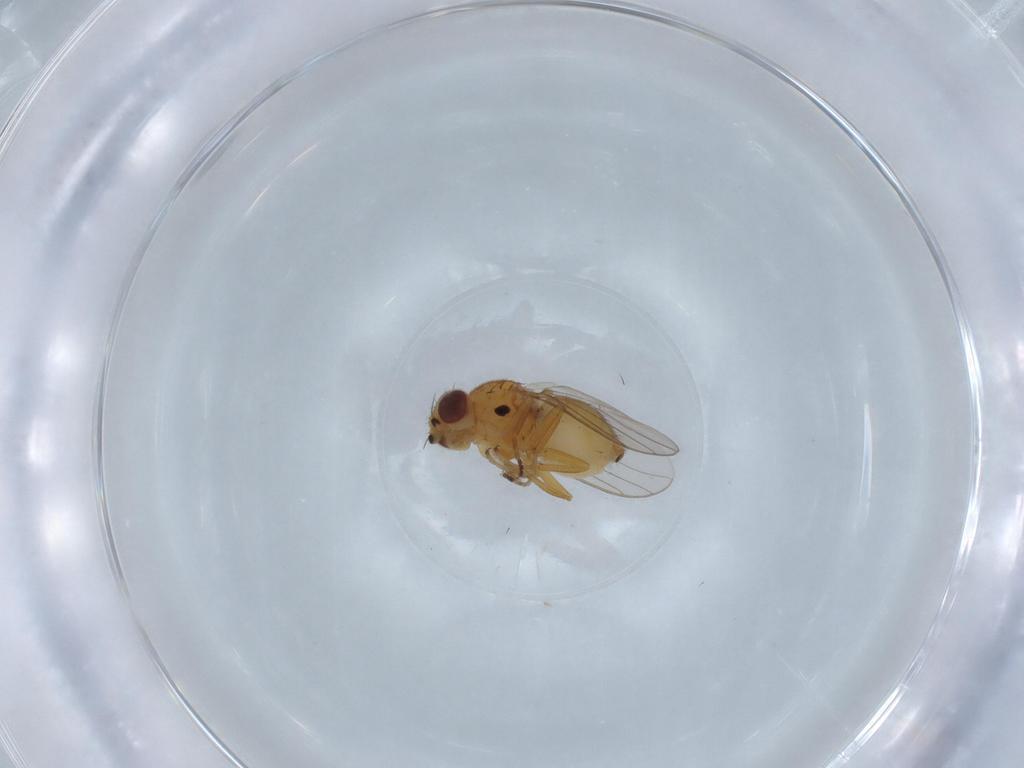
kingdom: Animalia
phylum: Arthropoda
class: Insecta
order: Diptera
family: Chloropidae
